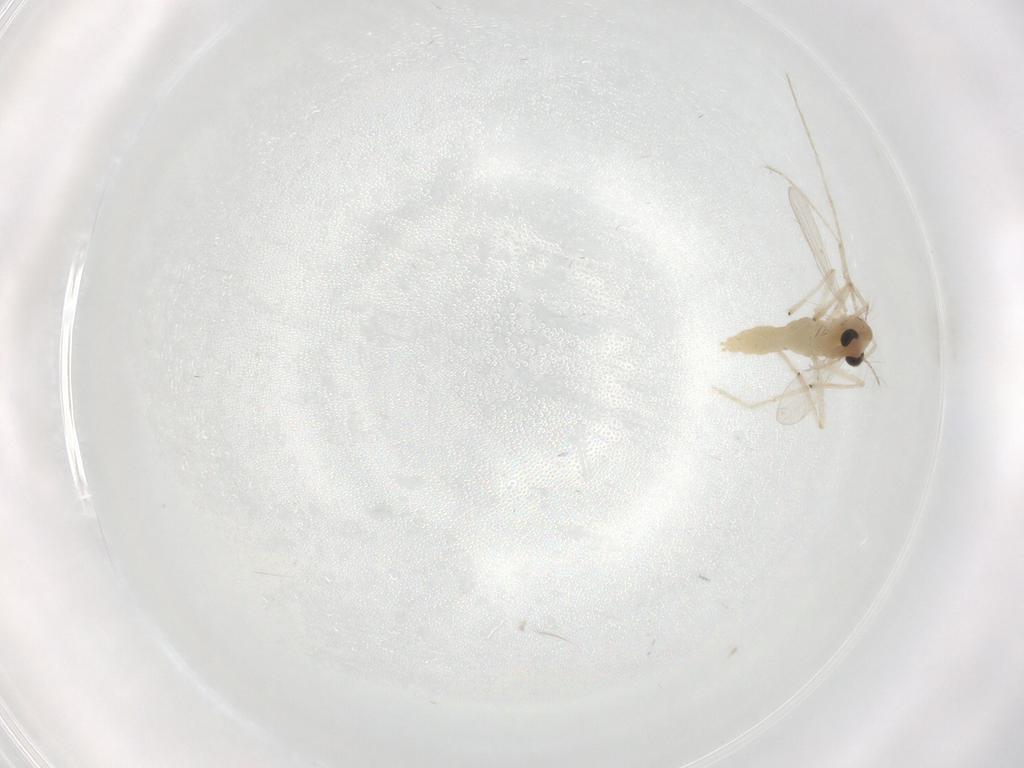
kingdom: Animalia
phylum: Arthropoda
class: Insecta
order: Diptera
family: Chironomidae
